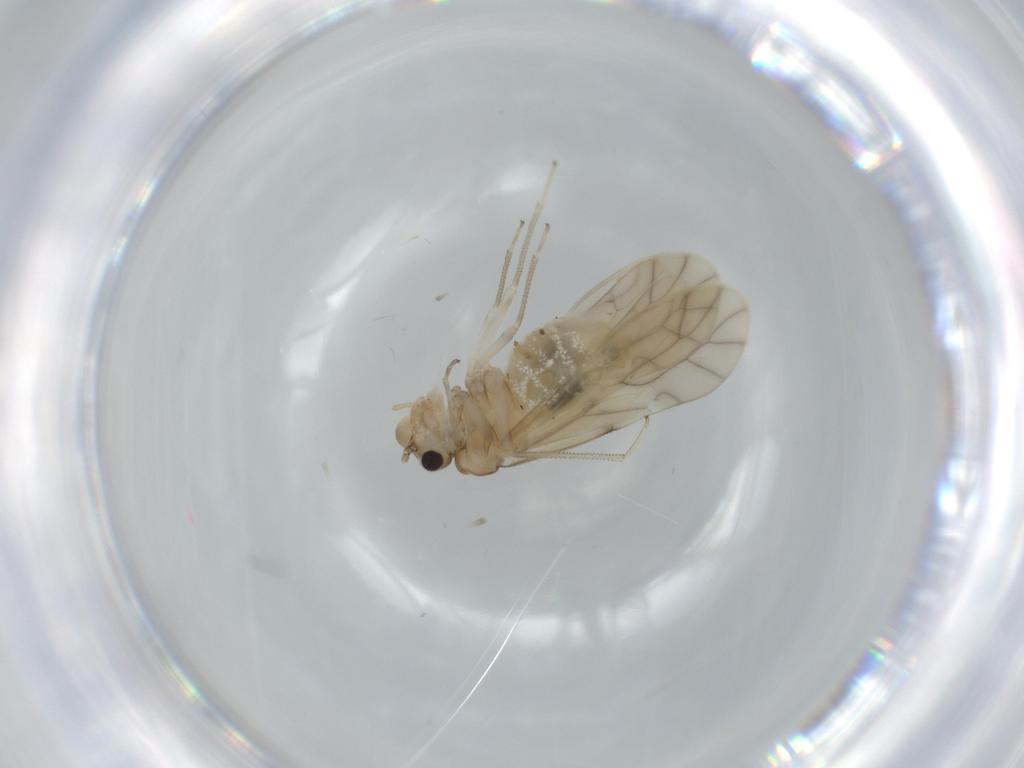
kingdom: Animalia
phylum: Arthropoda
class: Insecta
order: Psocodea
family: Caeciliusidae
